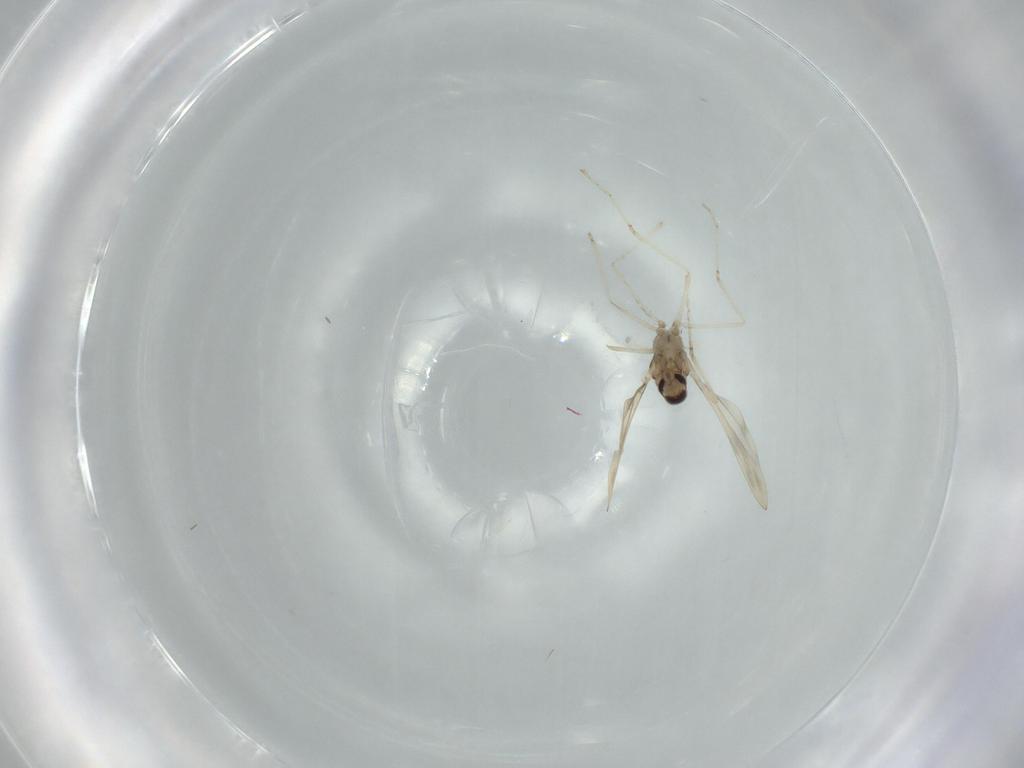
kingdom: Animalia
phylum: Arthropoda
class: Insecta
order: Diptera
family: Cecidomyiidae
